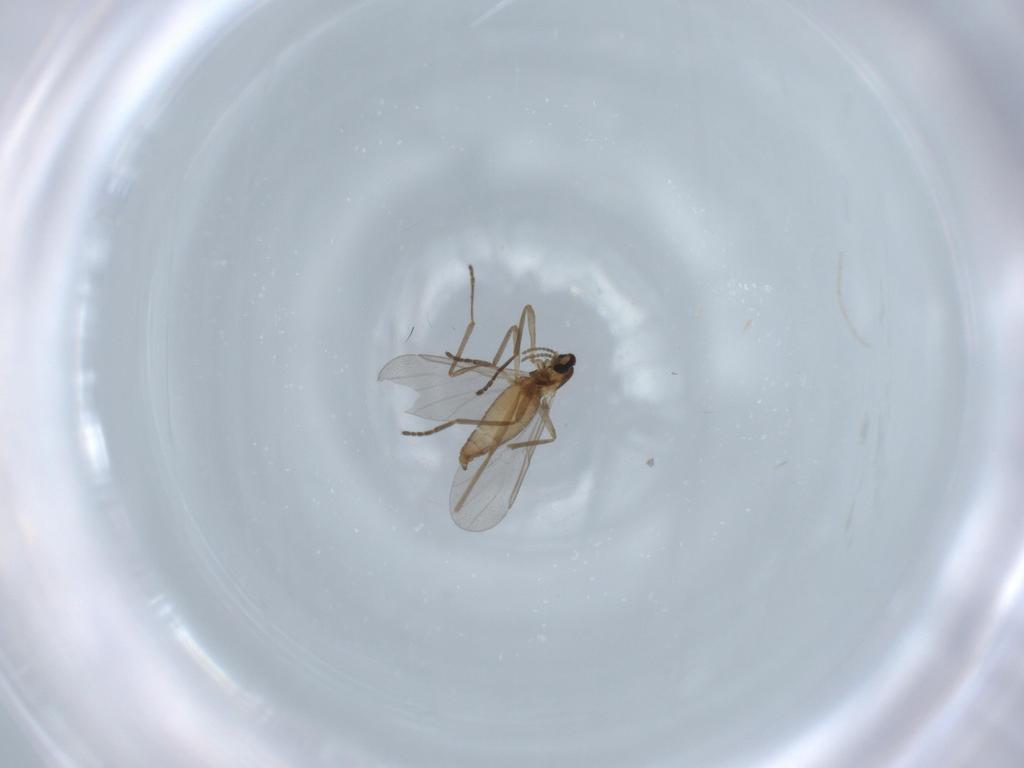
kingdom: Animalia
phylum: Arthropoda
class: Insecta
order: Diptera
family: Cecidomyiidae
